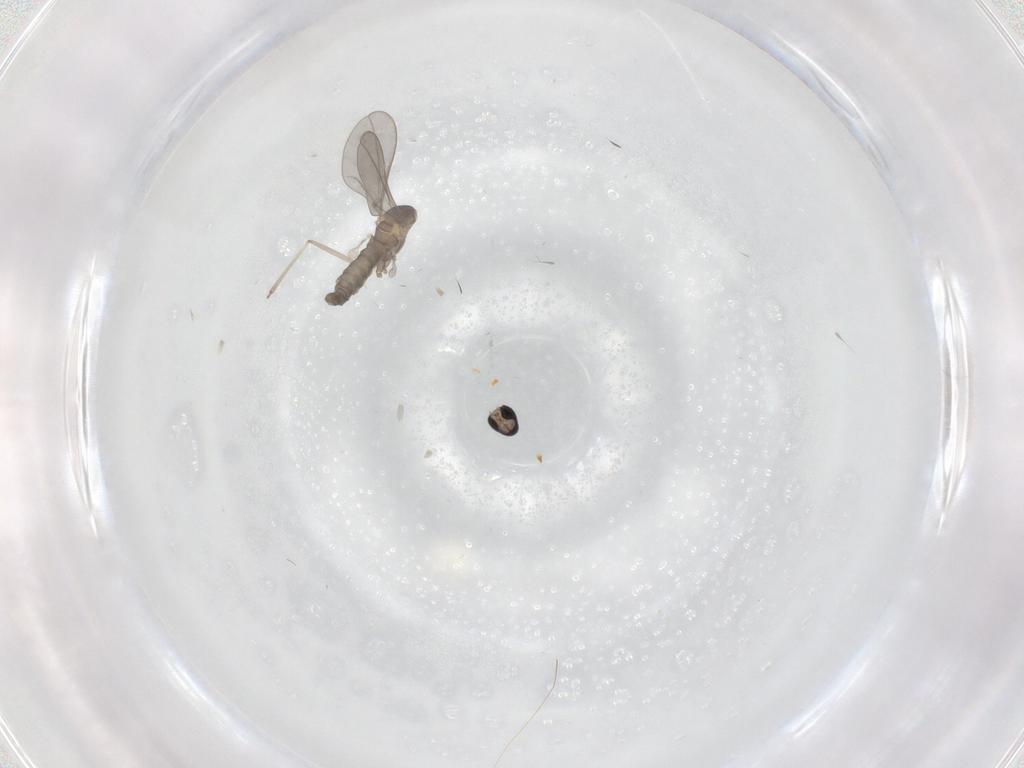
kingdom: Animalia
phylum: Arthropoda
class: Insecta
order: Diptera
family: Cecidomyiidae
